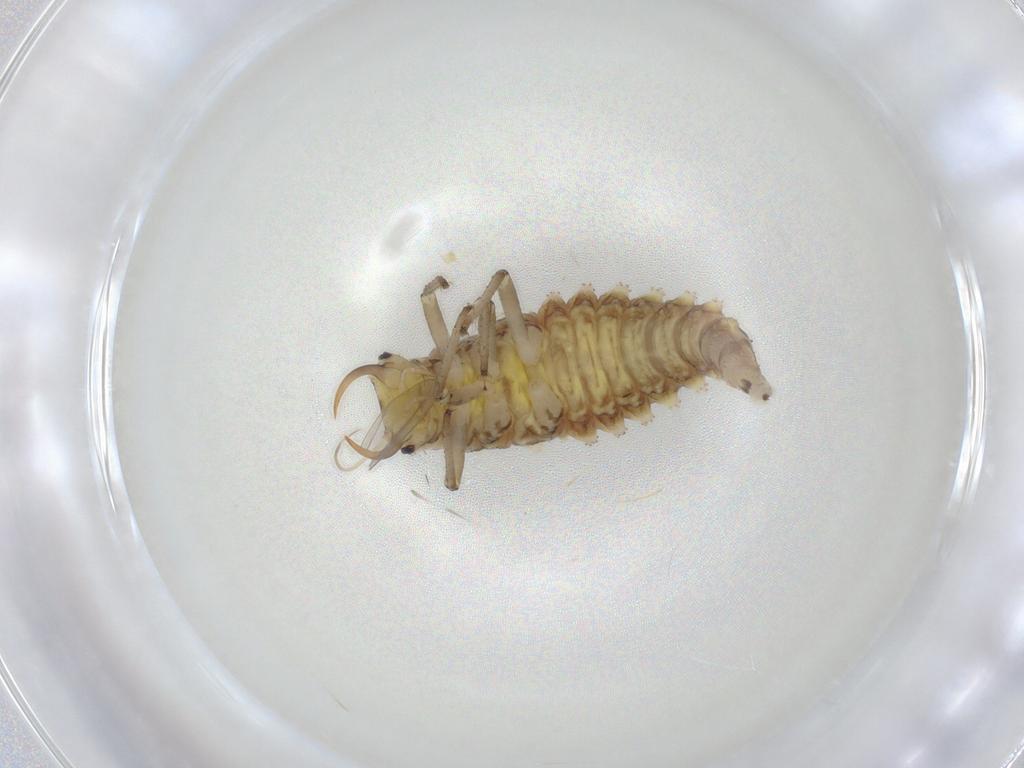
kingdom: Animalia
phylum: Arthropoda
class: Insecta
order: Neuroptera
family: Chrysopidae
